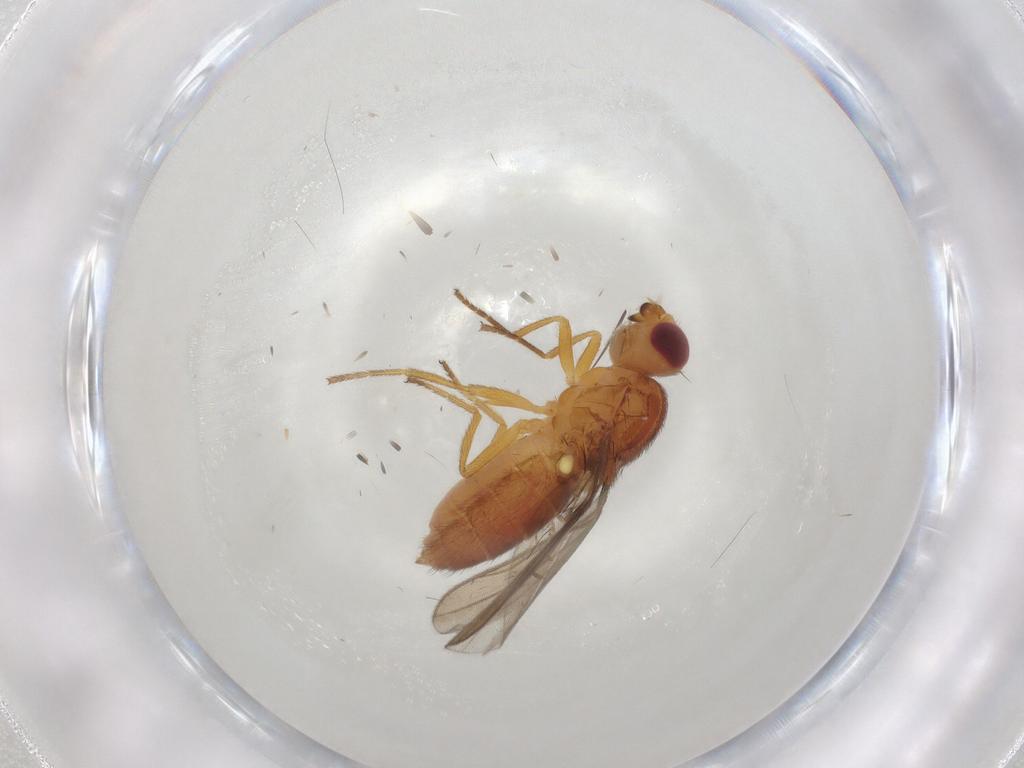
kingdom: Animalia
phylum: Arthropoda
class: Insecta
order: Diptera
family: Chloropidae
